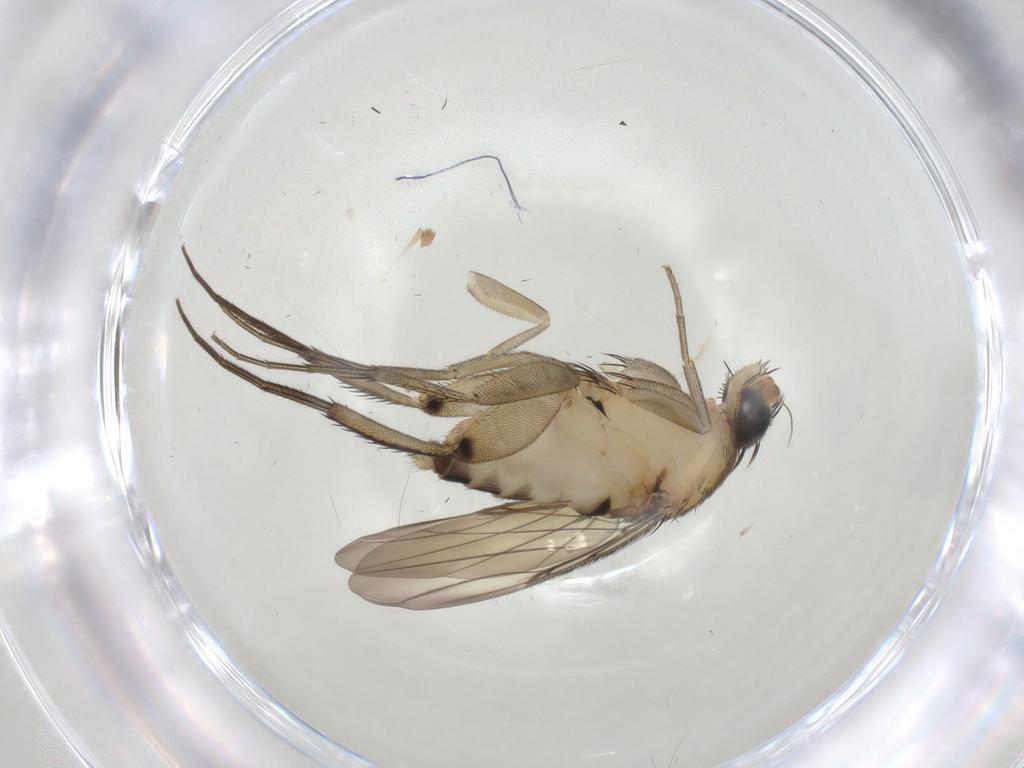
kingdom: Animalia
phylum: Arthropoda
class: Insecta
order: Diptera
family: Phoridae
